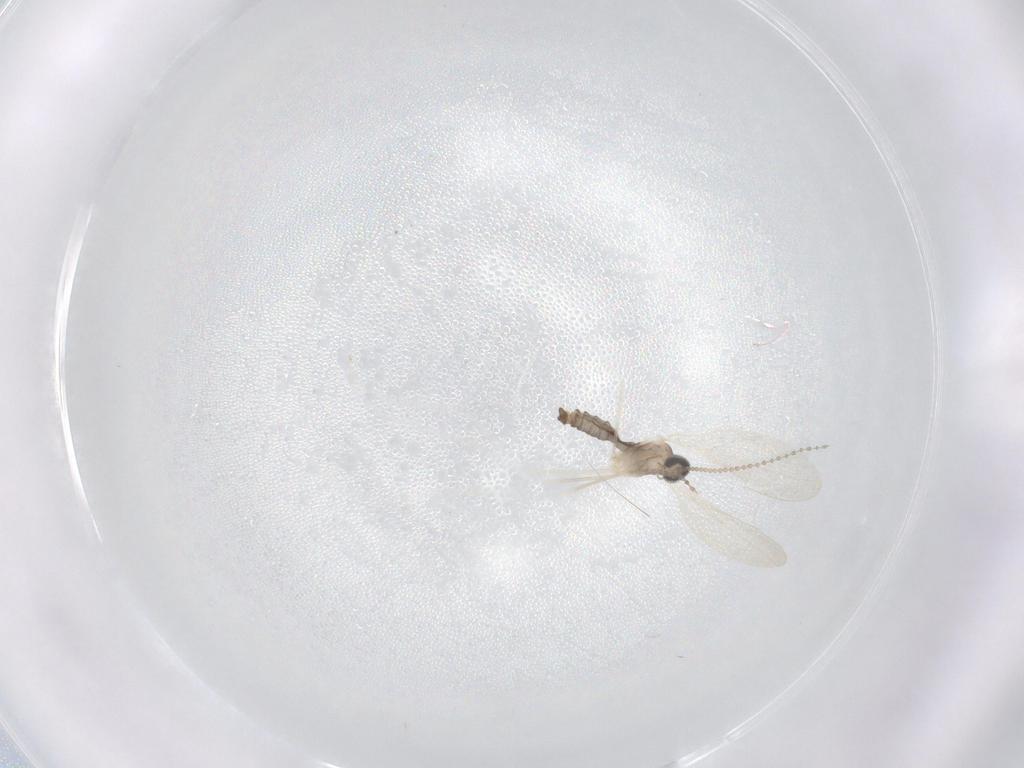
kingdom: Animalia
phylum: Arthropoda
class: Insecta
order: Diptera
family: Cecidomyiidae
